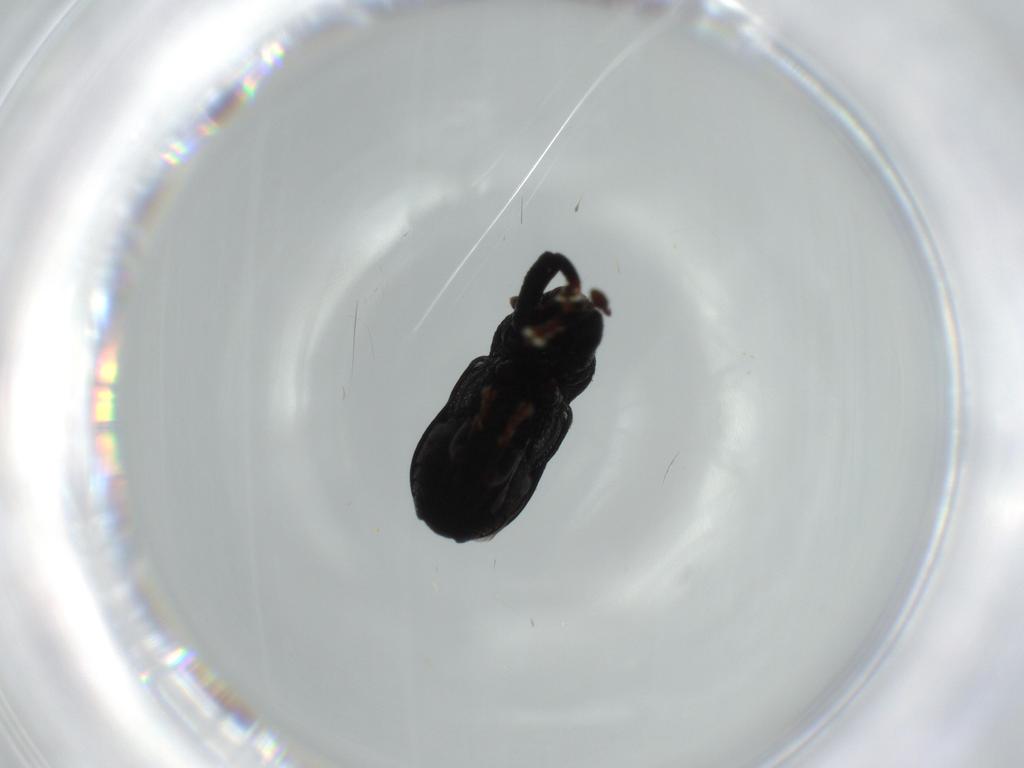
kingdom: Animalia
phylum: Arthropoda
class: Insecta
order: Coleoptera
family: Curculionidae
